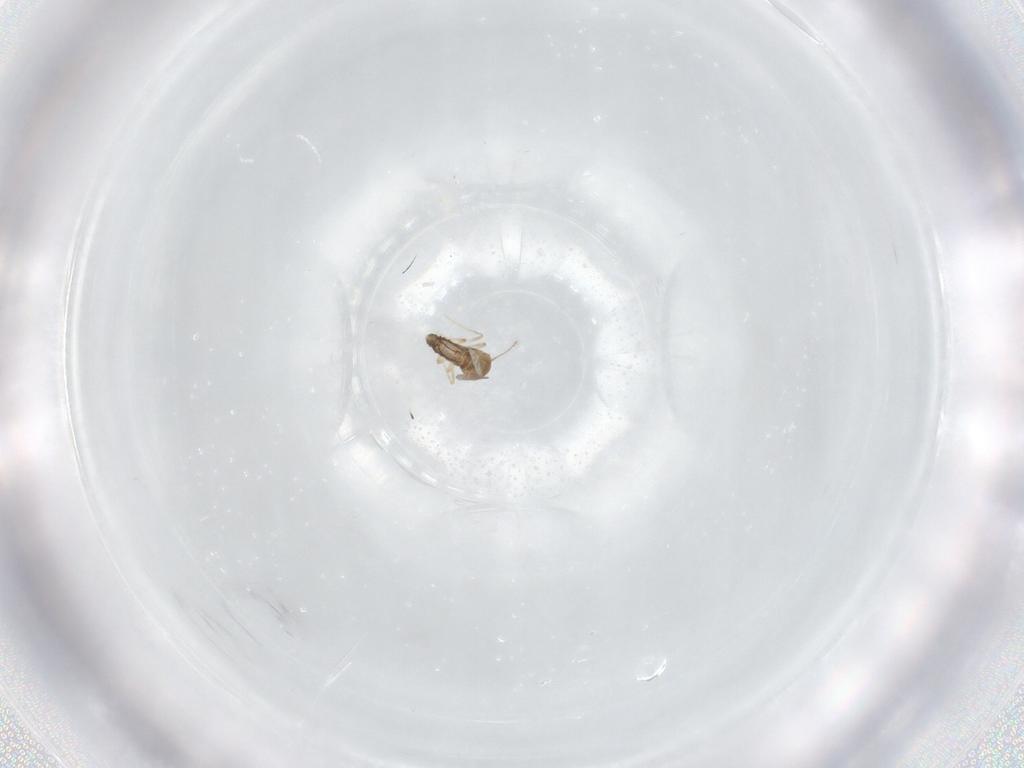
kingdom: Animalia
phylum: Arthropoda
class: Insecta
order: Diptera
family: Ceratopogonidae
